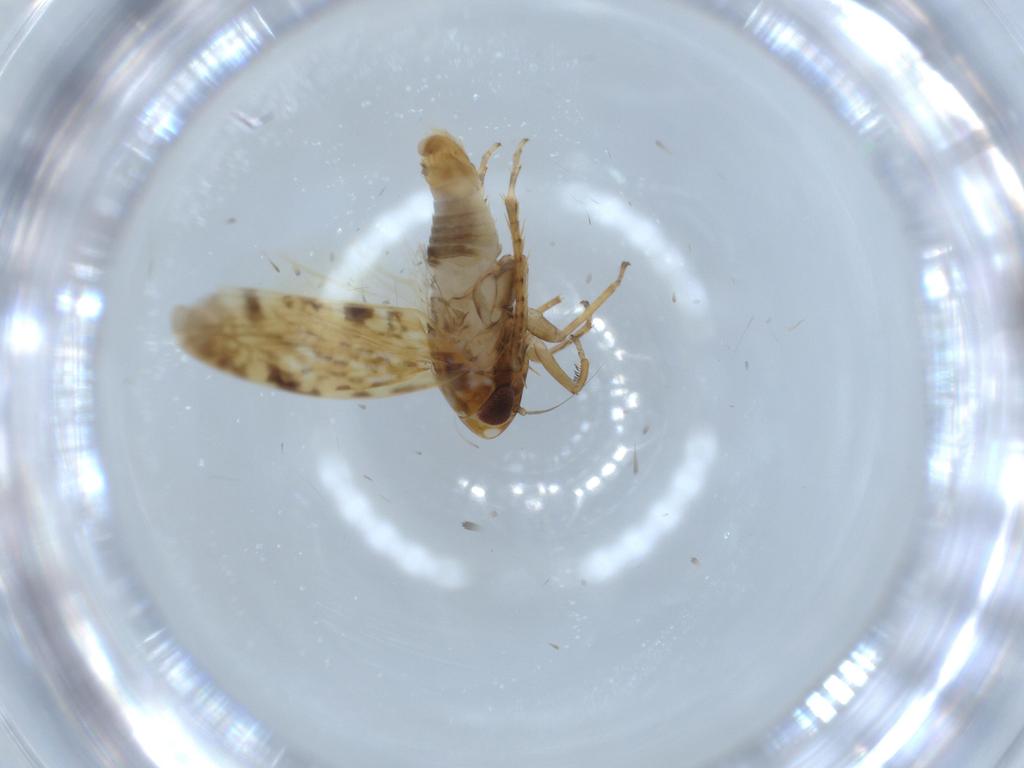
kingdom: Animalia
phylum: Arthropoda
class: Insecta
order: Hemiptera
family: Cicadellidae
